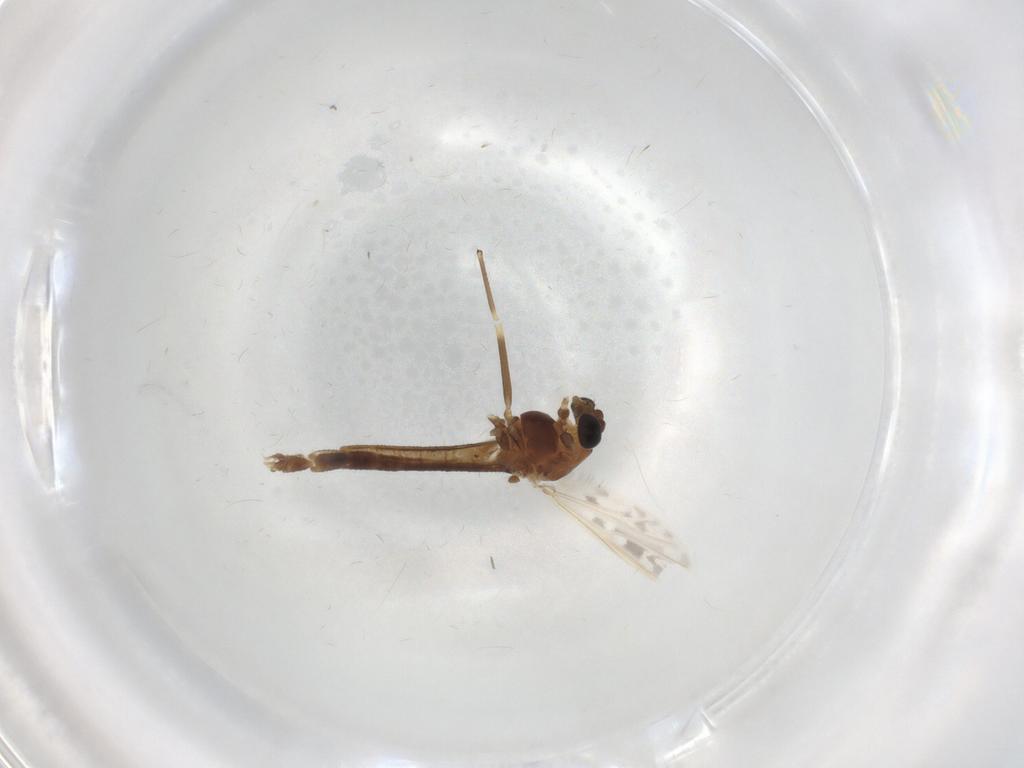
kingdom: Animalia
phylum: Arthropoda
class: Insecta
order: Diptera
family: Chironomidae
